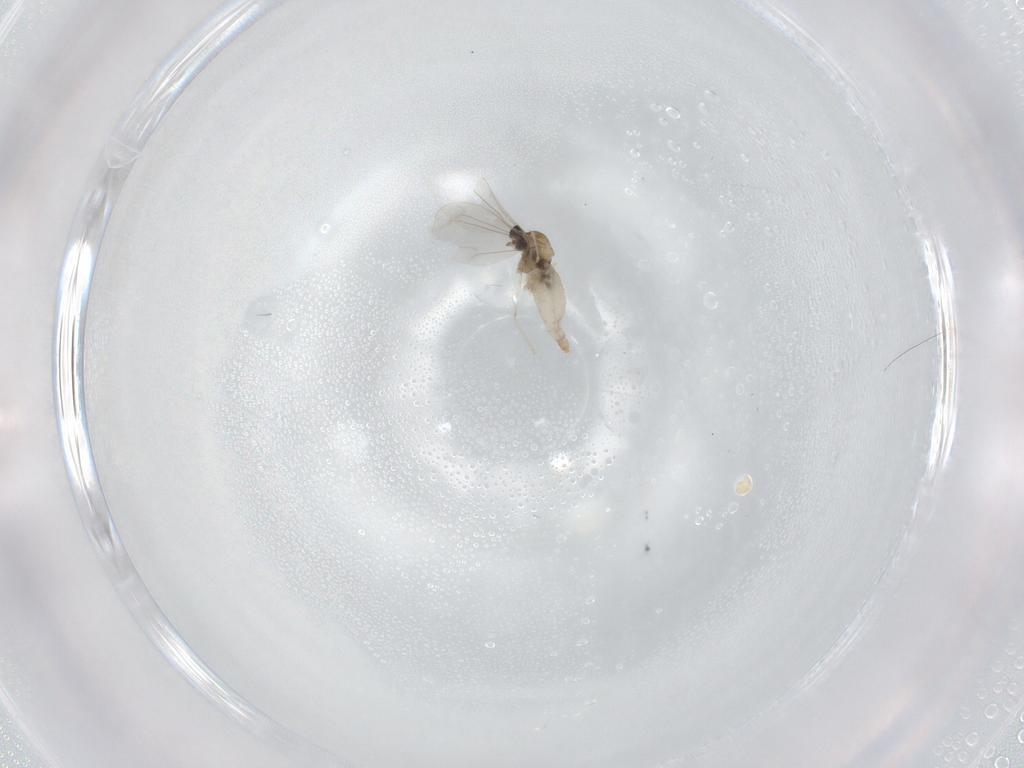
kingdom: Animalia
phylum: Arthropoda
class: Insecta
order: Diptera
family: Cecidomyiidae
